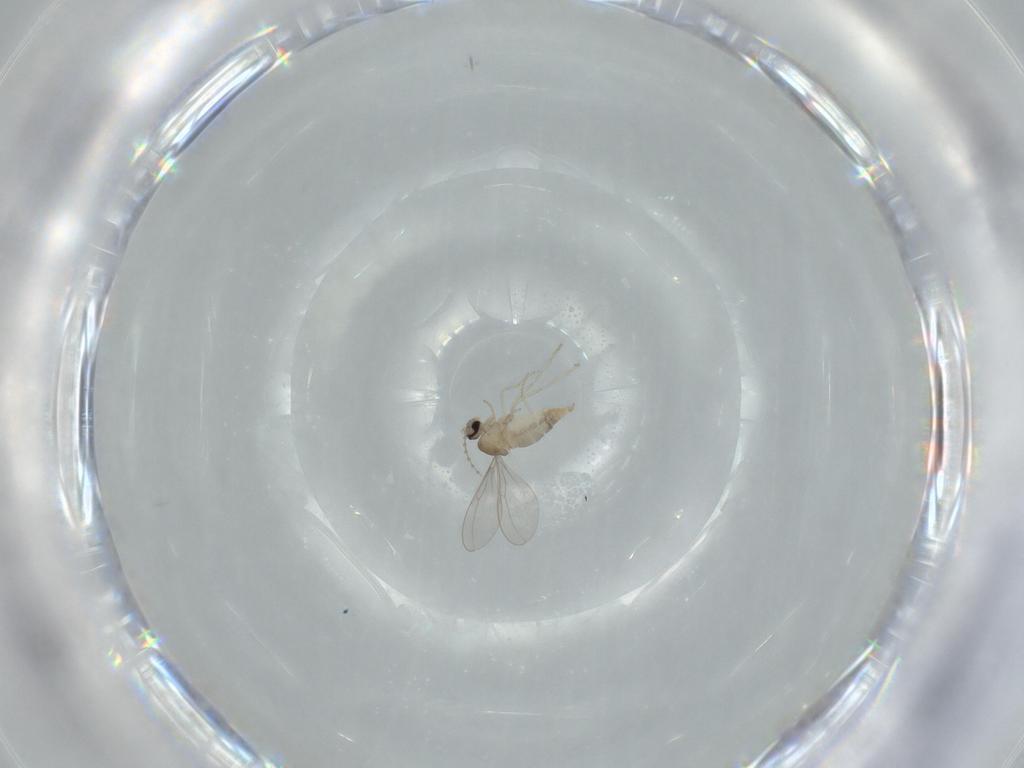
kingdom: Animalia
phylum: Arthropoda
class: Insecta
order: Diptera
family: Cecidomyiidae
